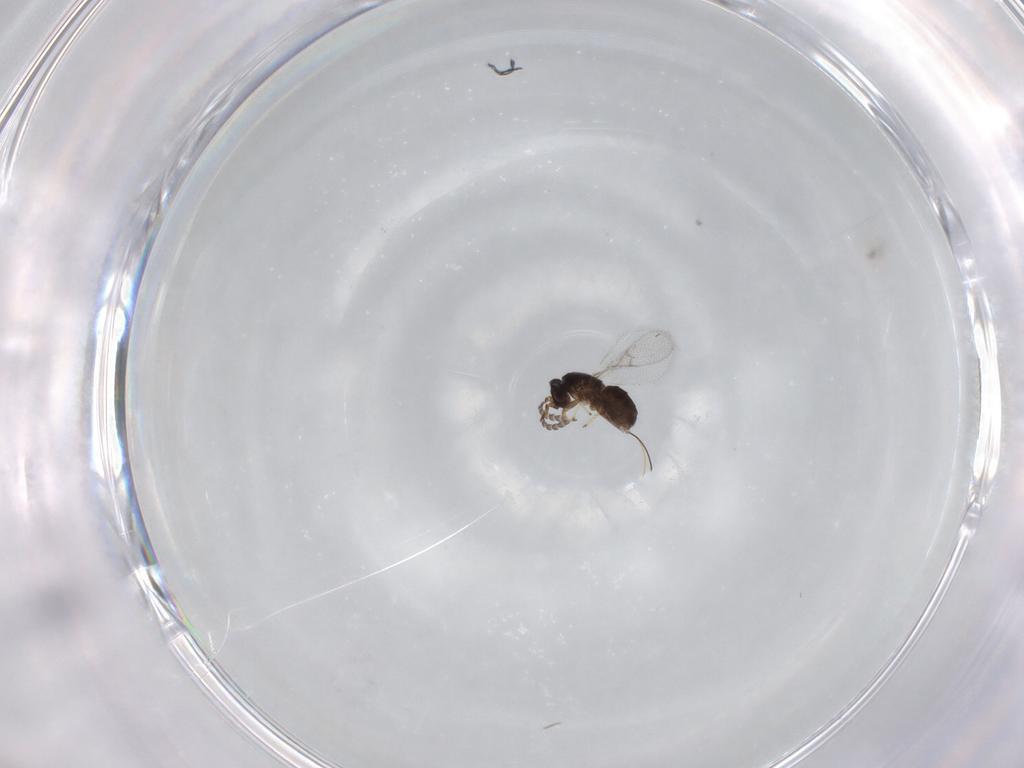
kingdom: Animalia
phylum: Arthropoda
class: Insecta
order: Hymenoptera
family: Agaonidae
